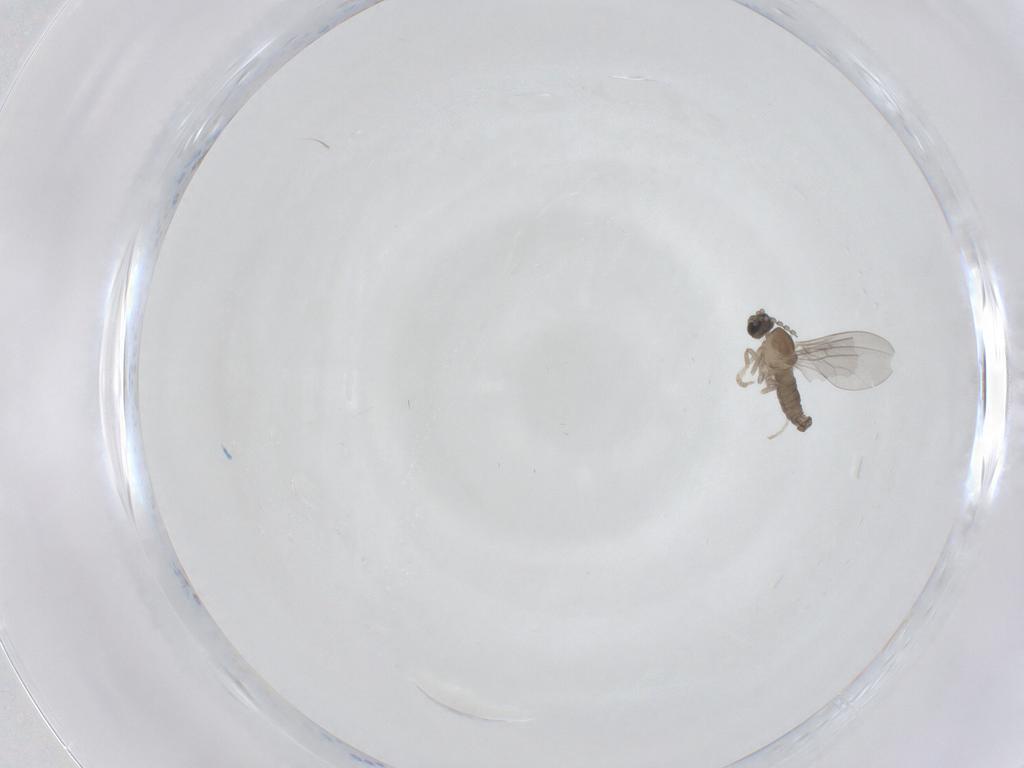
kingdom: Animalia
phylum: Arthropoda
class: Insecta
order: Diptera
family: Cecidomyiidae
